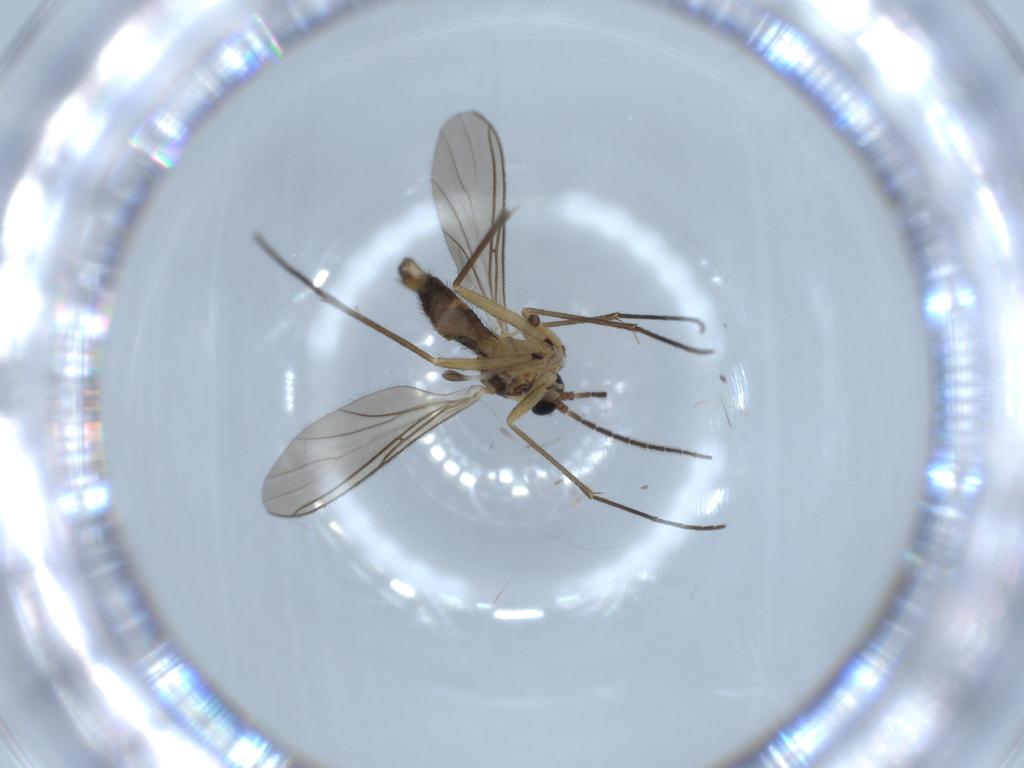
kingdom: Animalia
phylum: Arthropoda
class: Insecta
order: Diptera
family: Sciaridae
